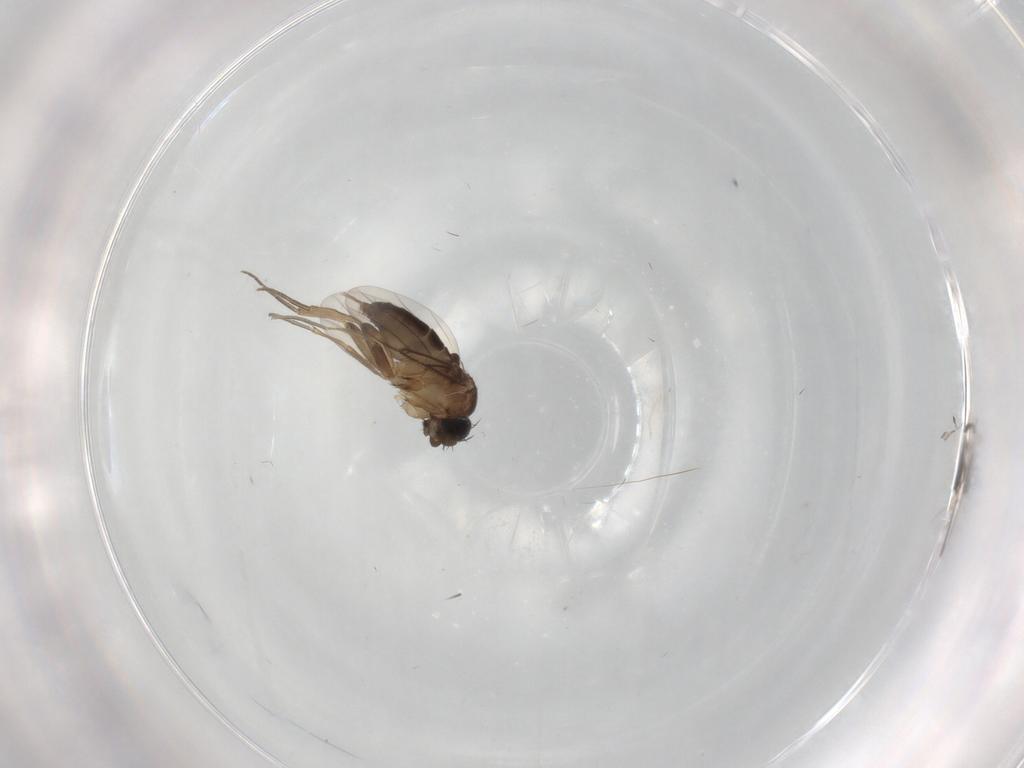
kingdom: Animalia
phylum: Arthropoda
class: Insecta
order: Diptera
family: Phoridae
